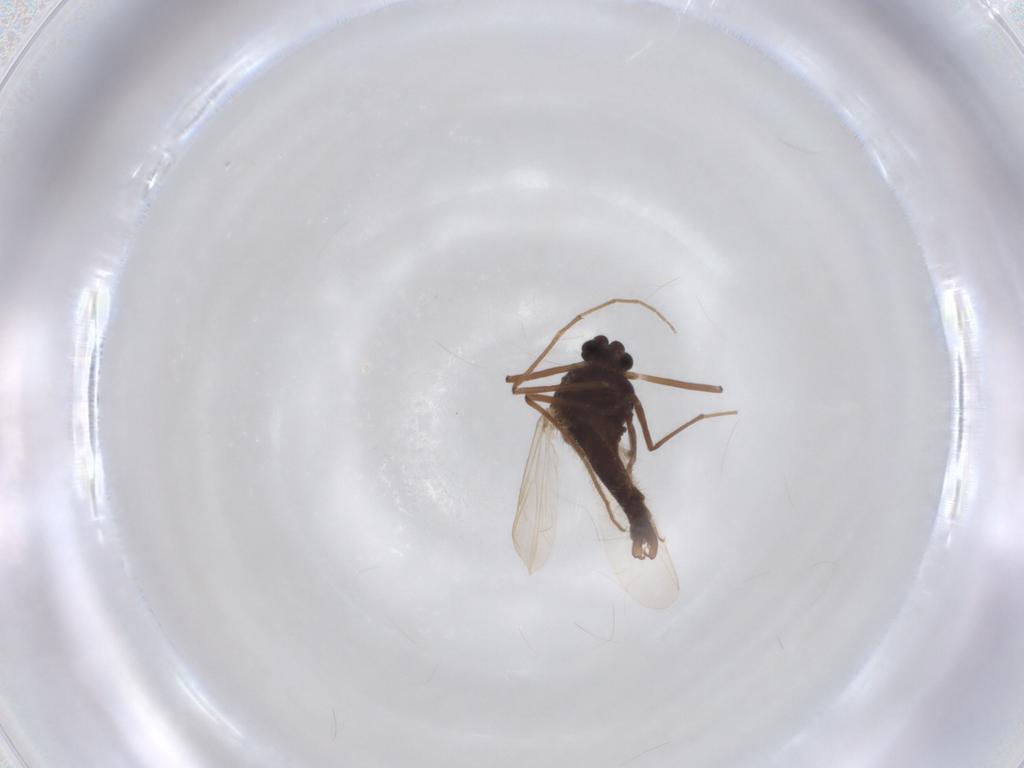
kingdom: Animalia
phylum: Arthropoda
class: Insecta
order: Diptera
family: Chironomidae
